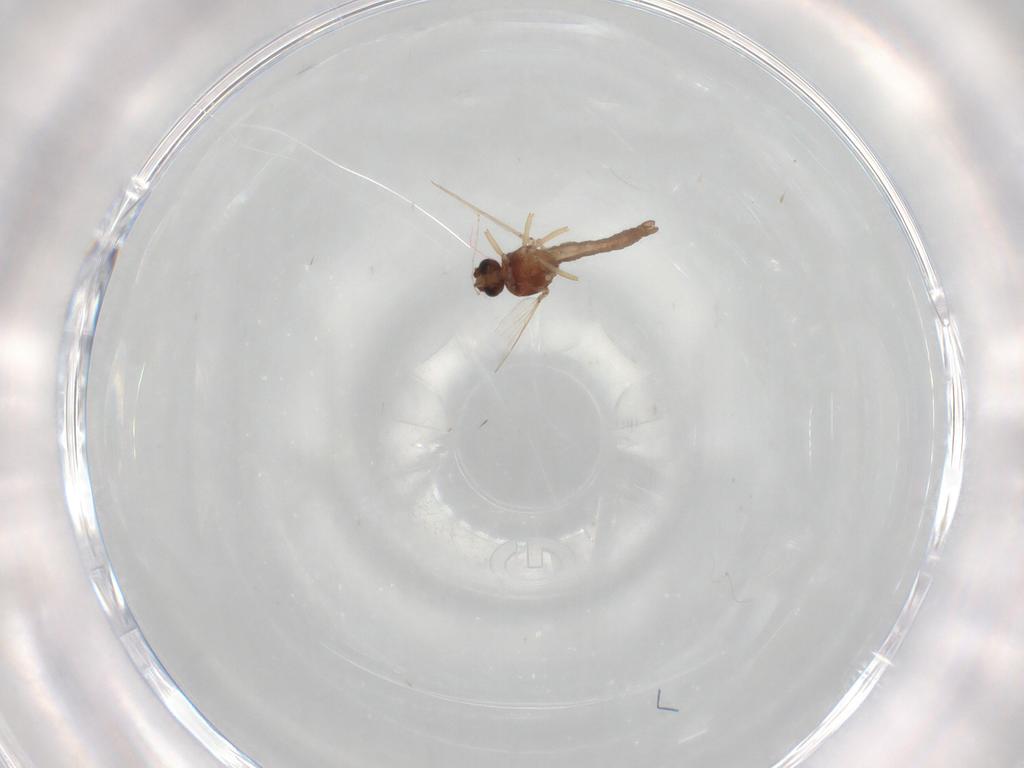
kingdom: Animalia
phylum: Arthropoda
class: Insecta
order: Diptera
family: Ceratopogonidae
